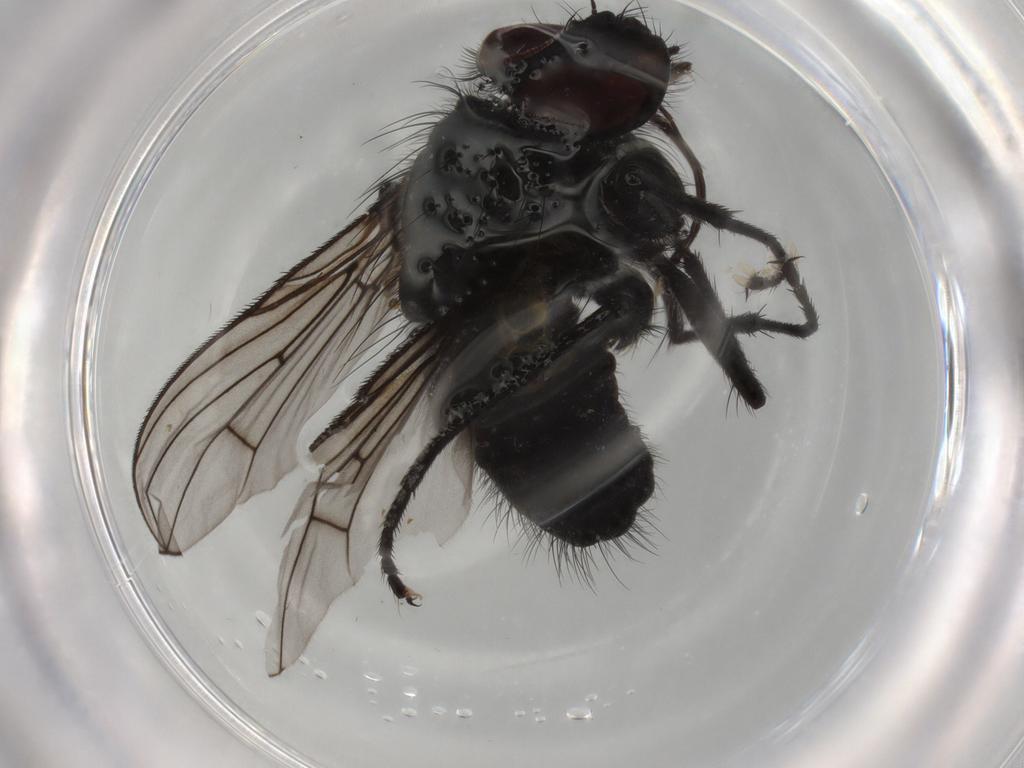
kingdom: Animalia
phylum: Arthropoda
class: Insecta
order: Diptera
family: Muscidae
